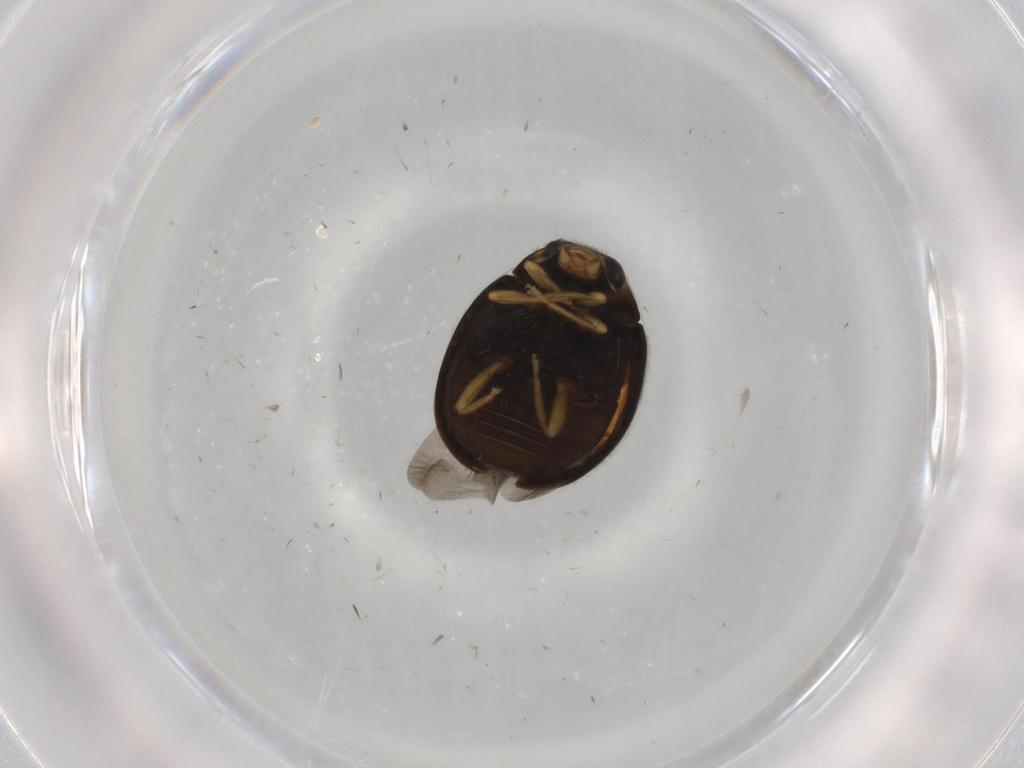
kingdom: Animalia
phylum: Arthropoda
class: Insecta
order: Coleoptera
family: Coccinellidae
